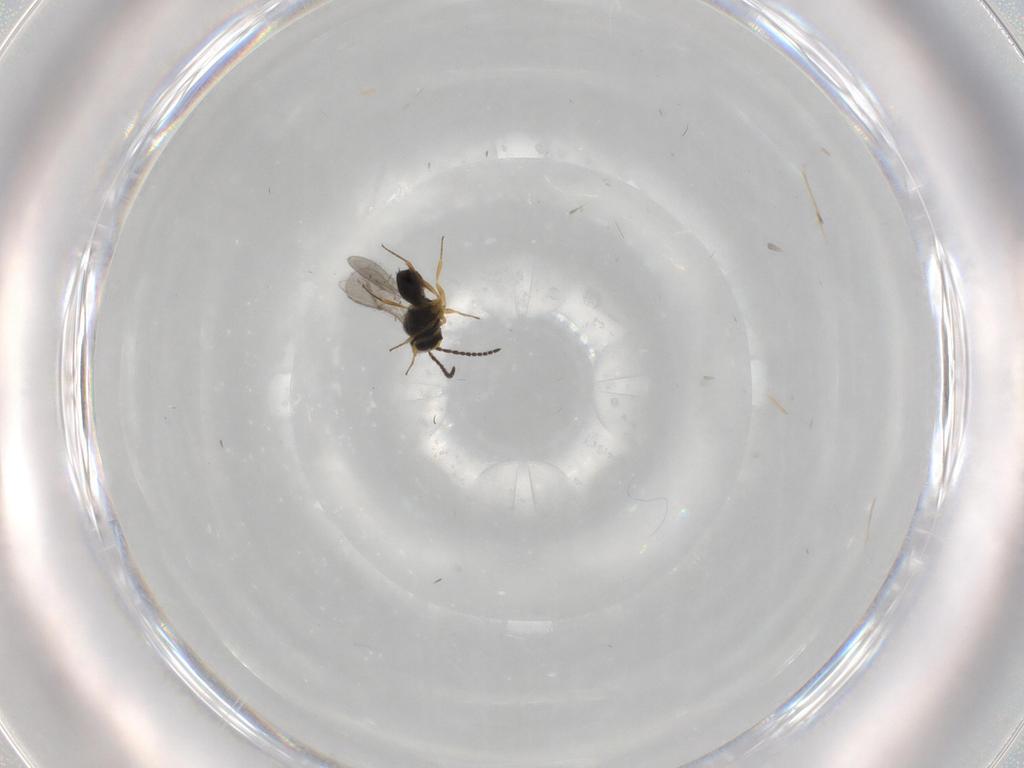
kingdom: Animalia
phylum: Arthropoda
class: Insecta
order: Hymenoptera
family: Scelionidae
